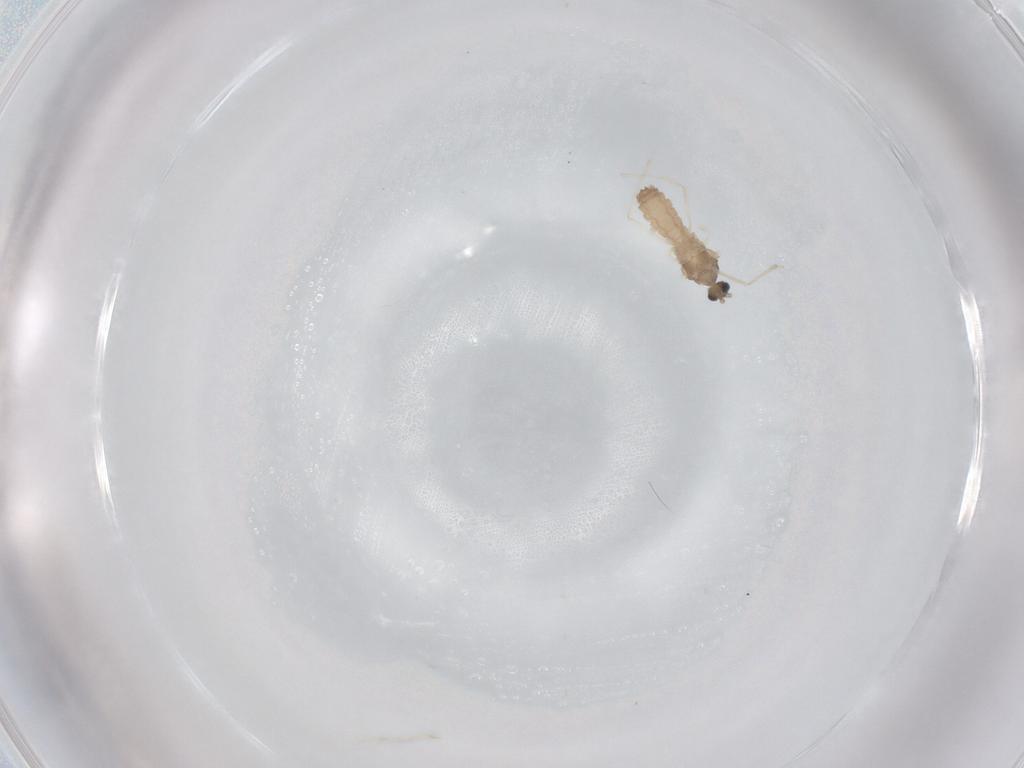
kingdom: Animalia
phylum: Arthropoda
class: Insecta
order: Diptera
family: Cecidomyiidae
